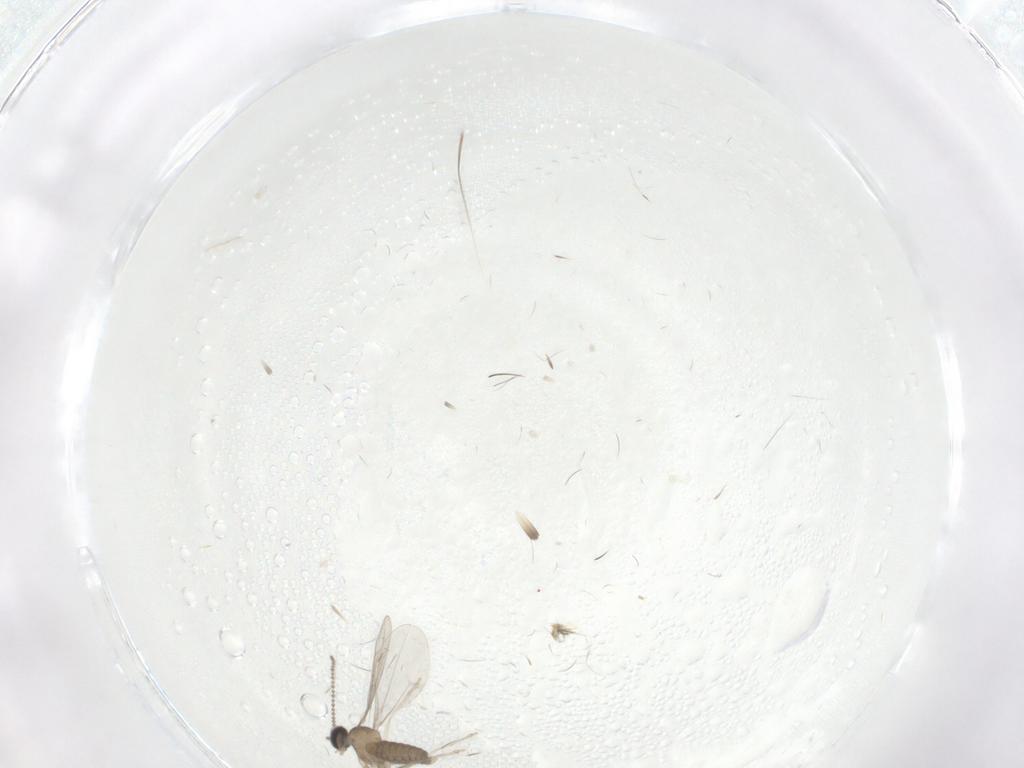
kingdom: Animalia
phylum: Arthropoda
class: Insecta
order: Diptera
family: Cecidomyiidae
